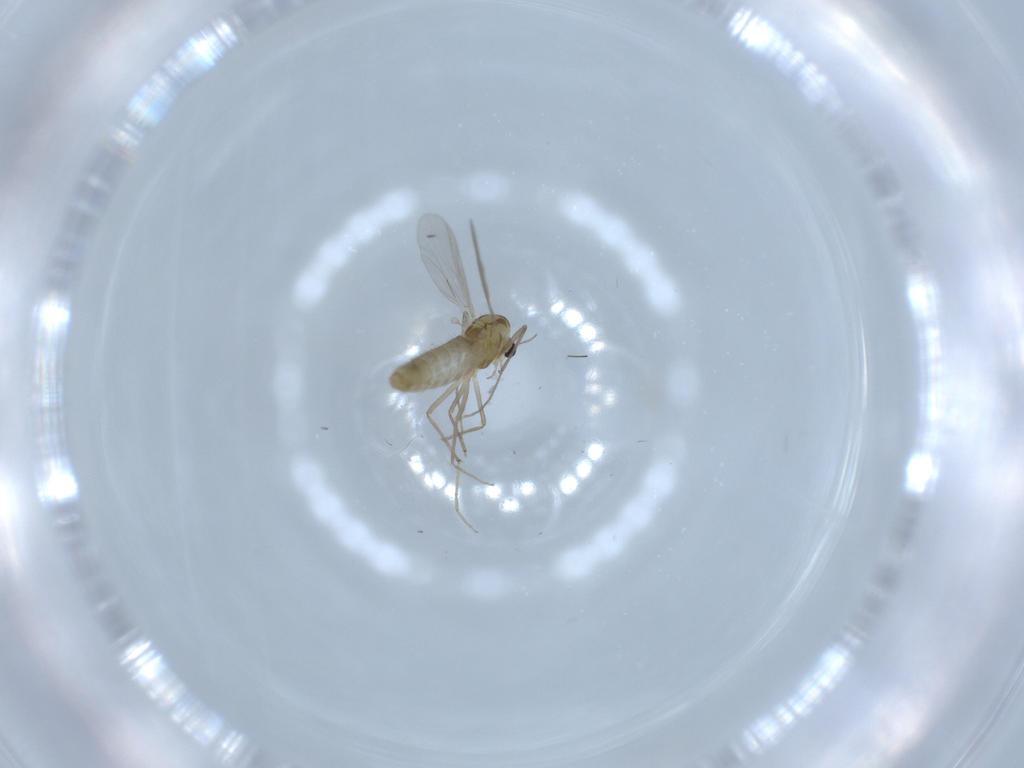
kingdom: Animalia
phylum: Arthropoda
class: Insecta
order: Diptera
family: Chironomidae
